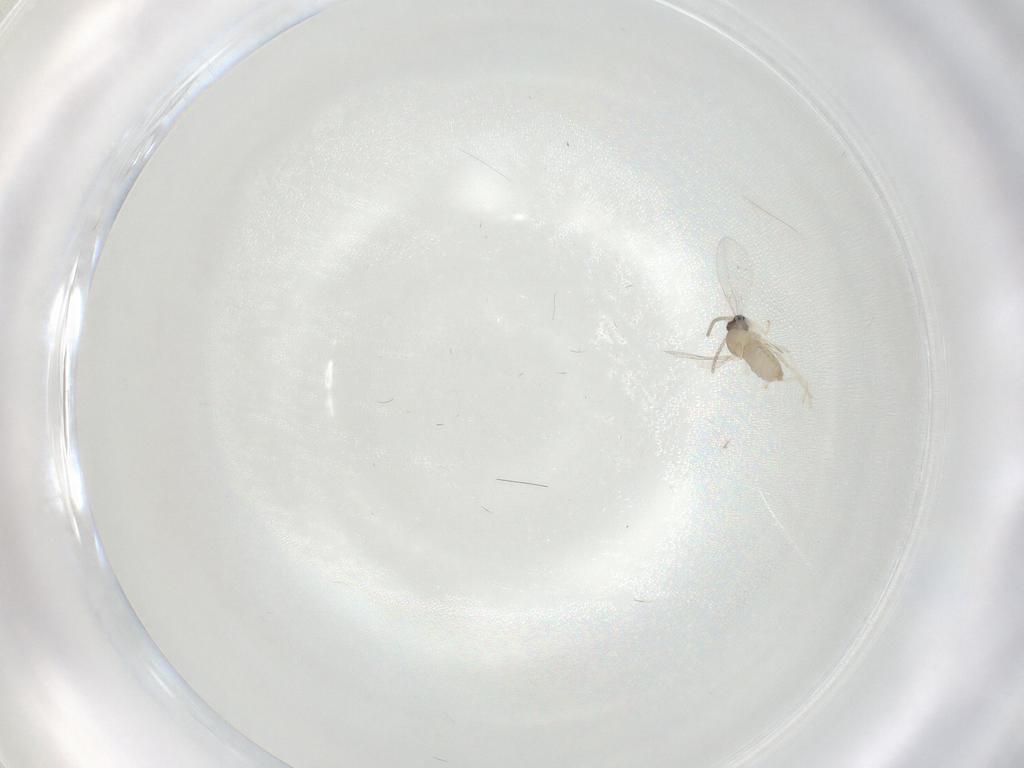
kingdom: Animalia
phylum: Arthropoda
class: Insecta
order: Diptera
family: Cecidomyiidae
